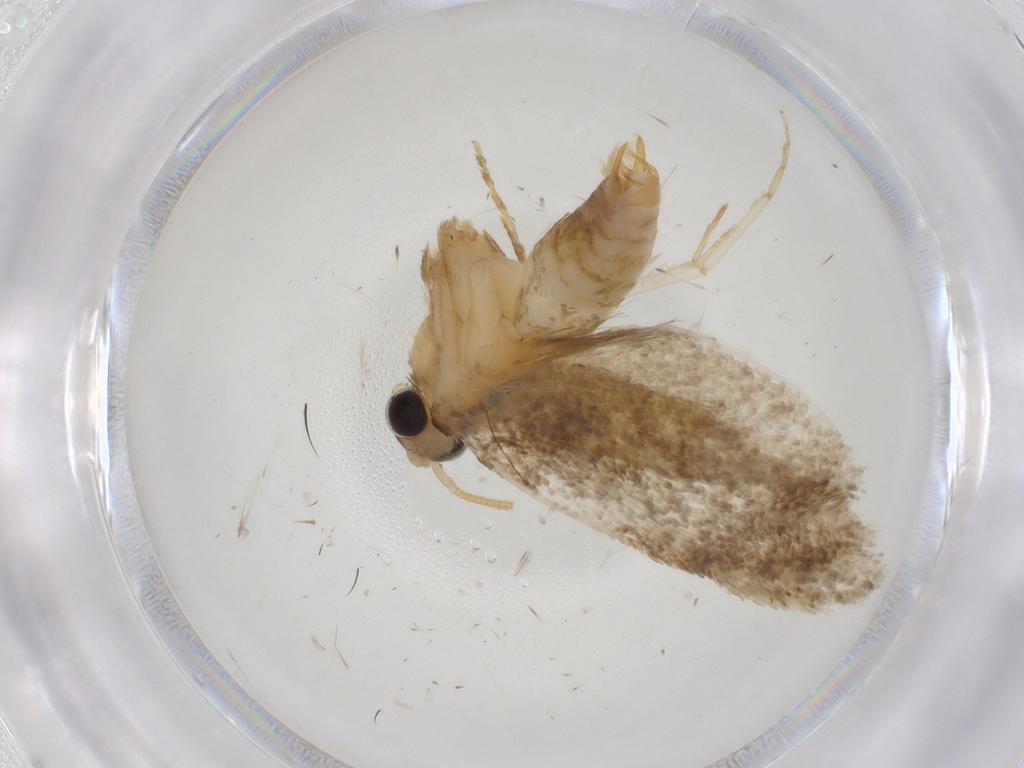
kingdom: Animalia
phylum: Arthropoda
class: Insecta
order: Lepidoptera
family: Tineidae
